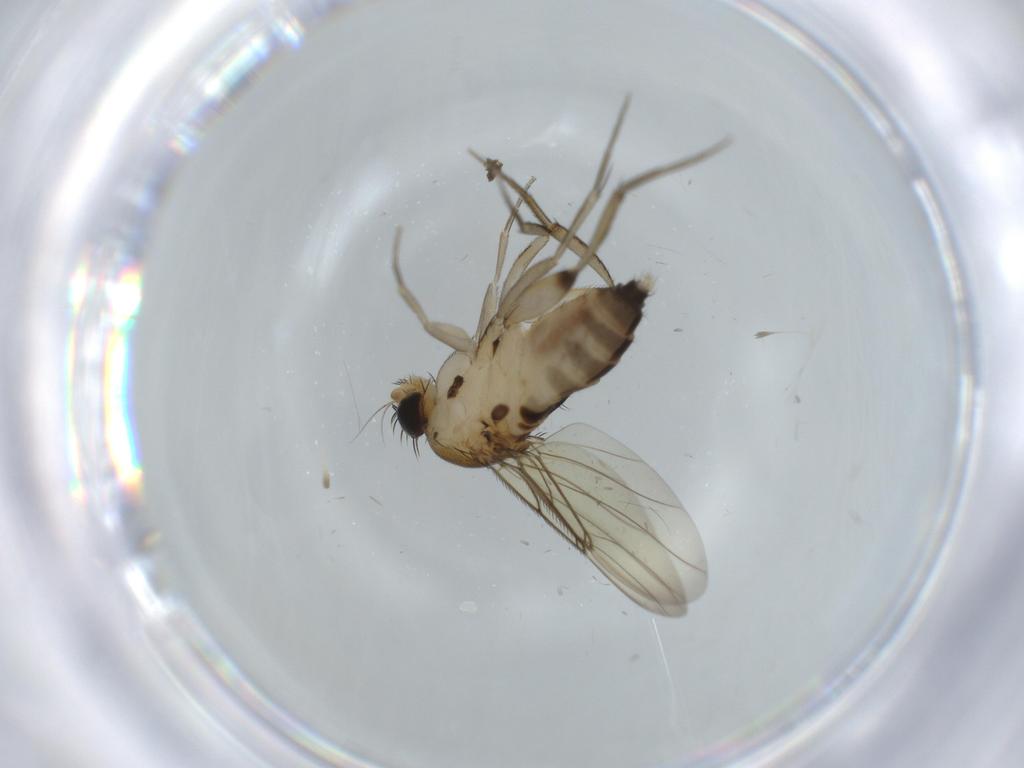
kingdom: Animalia
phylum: Arthropoda
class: Insecta
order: Diptera
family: Sciaridae
